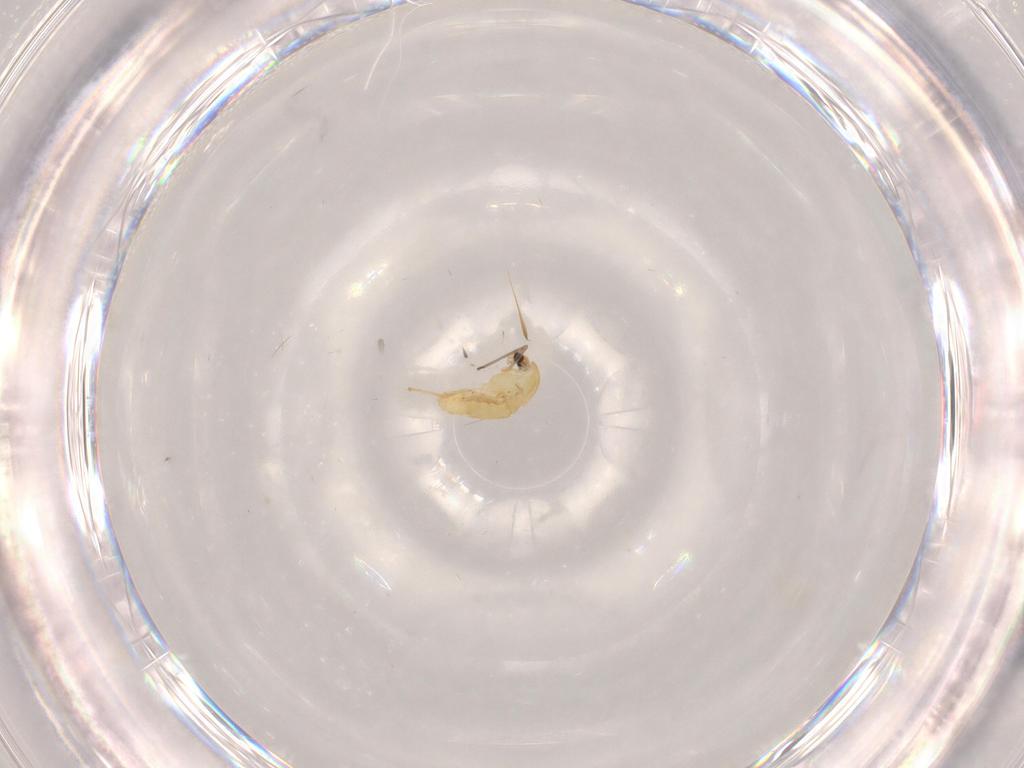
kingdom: Animalia
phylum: Arthropoda
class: Insecta
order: Diptera
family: Chironomidae
